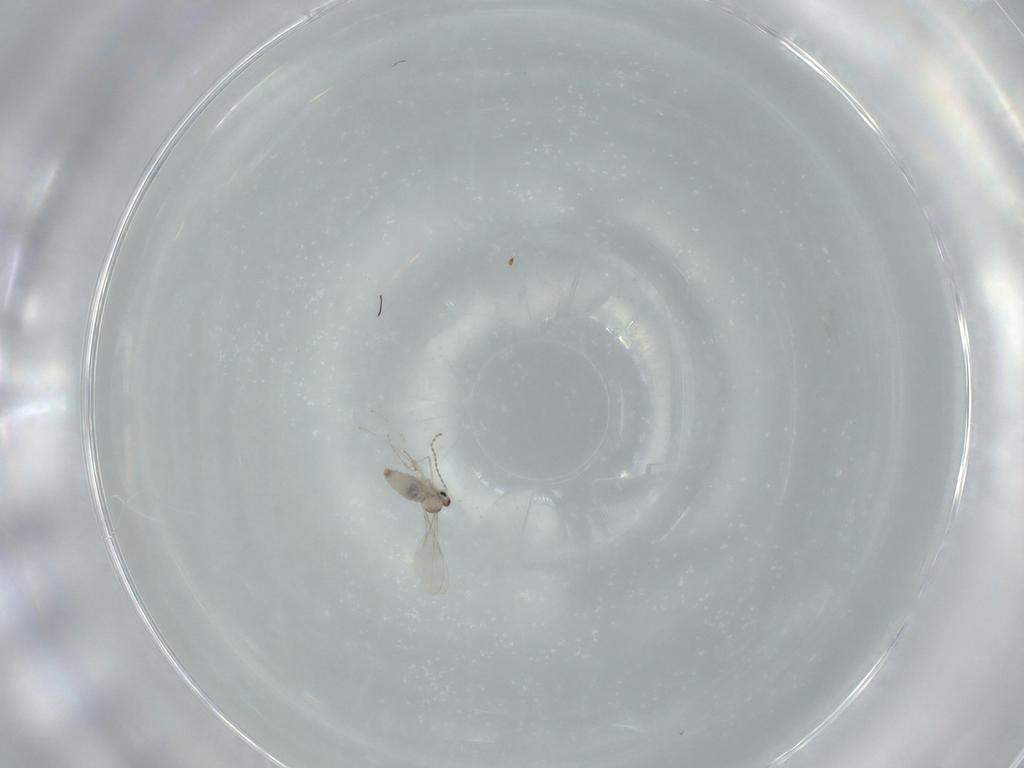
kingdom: Animalia
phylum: Arthropoda
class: Insecta
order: Diptera
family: Cecidomyiidae
